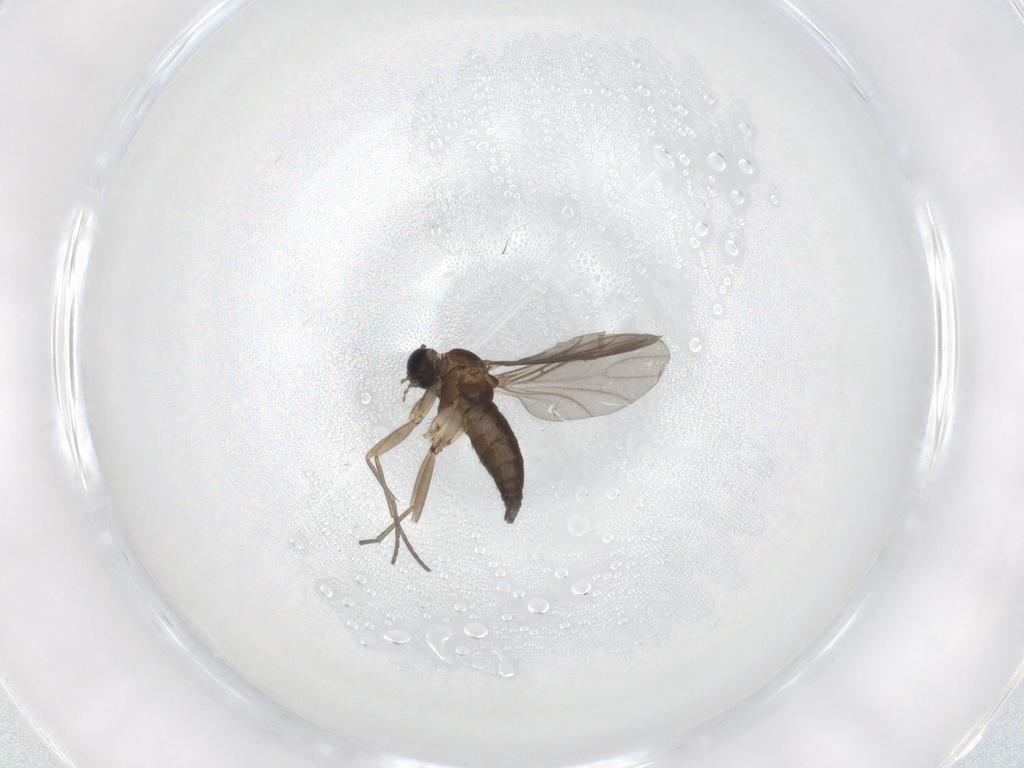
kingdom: Animalia
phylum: Arthropoda
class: Insecta
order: Diptera
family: Sciaridae
